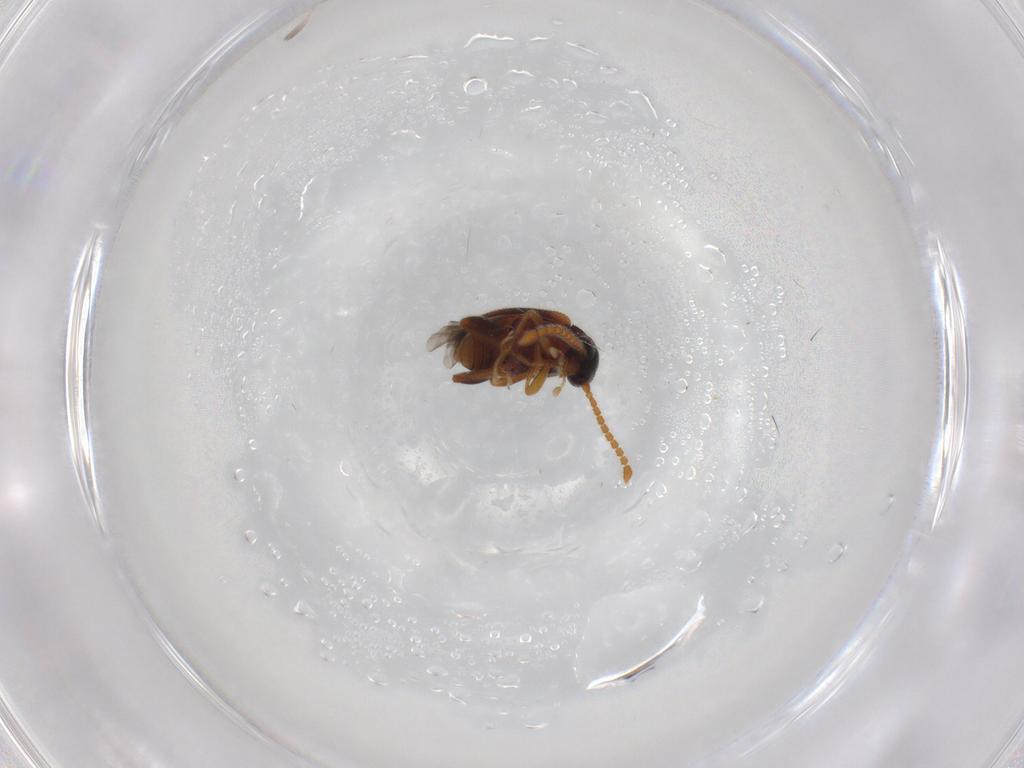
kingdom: Animalia
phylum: Arthropoda
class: Insecta
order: Coleoptera
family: Aderidae
